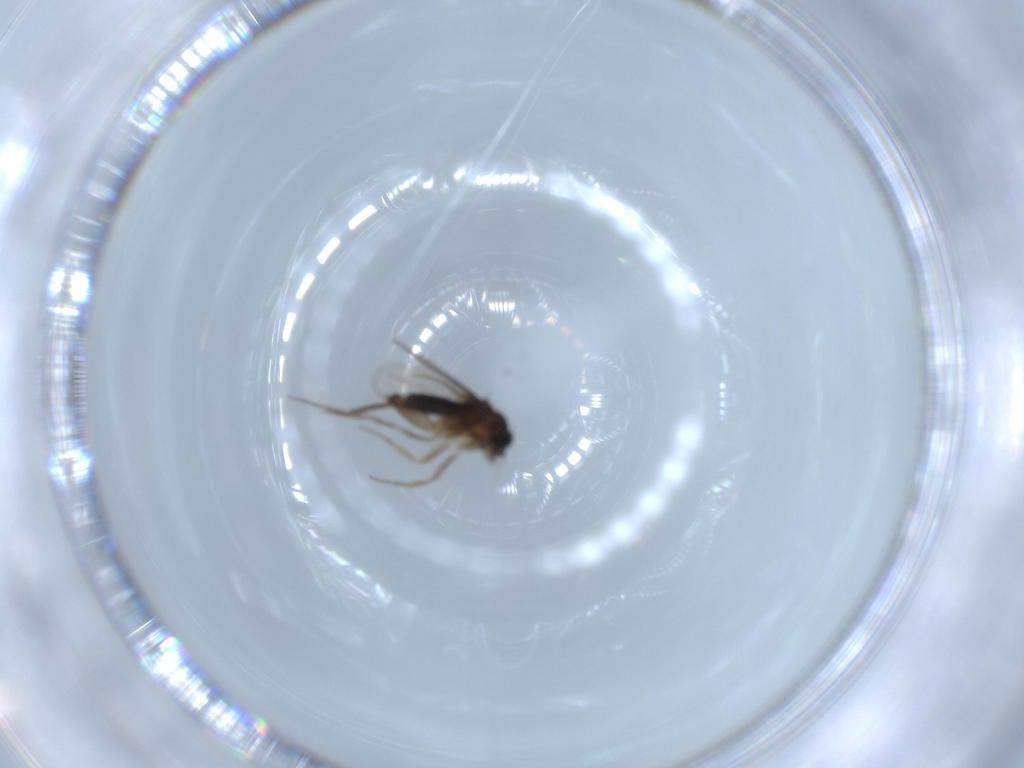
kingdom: Animalia
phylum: Arthropoda
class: Insecta
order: Diptera
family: Phoridae
